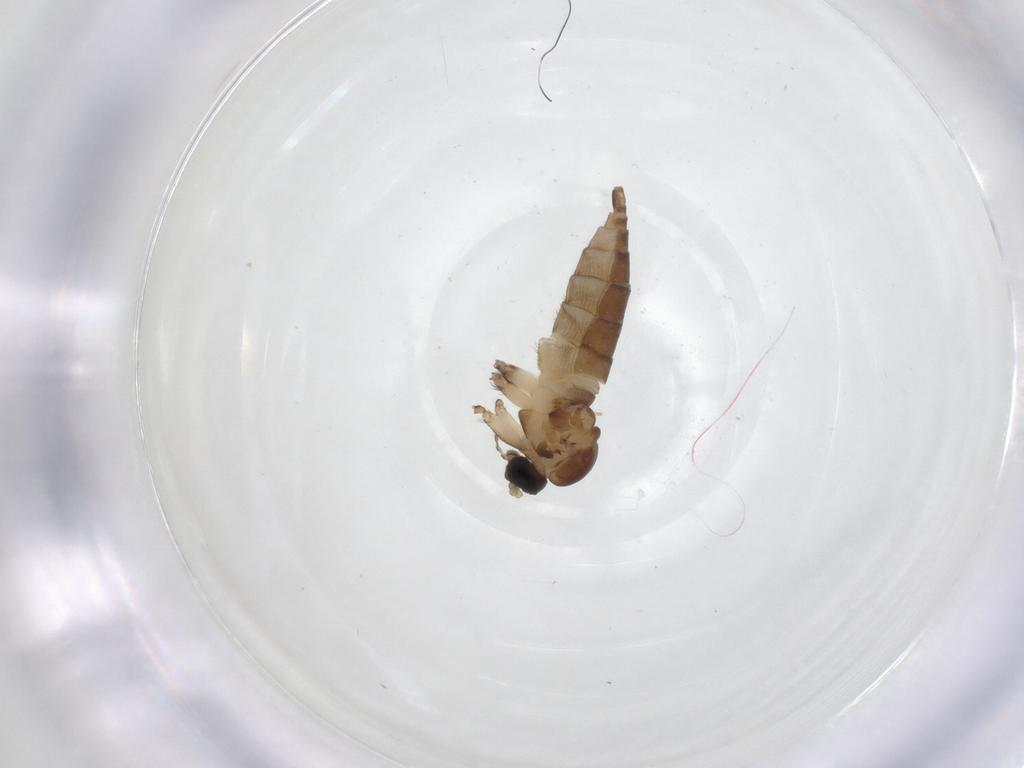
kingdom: Animalia
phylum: Arthropoda
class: Insecta
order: Diptera
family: Sciaridae
